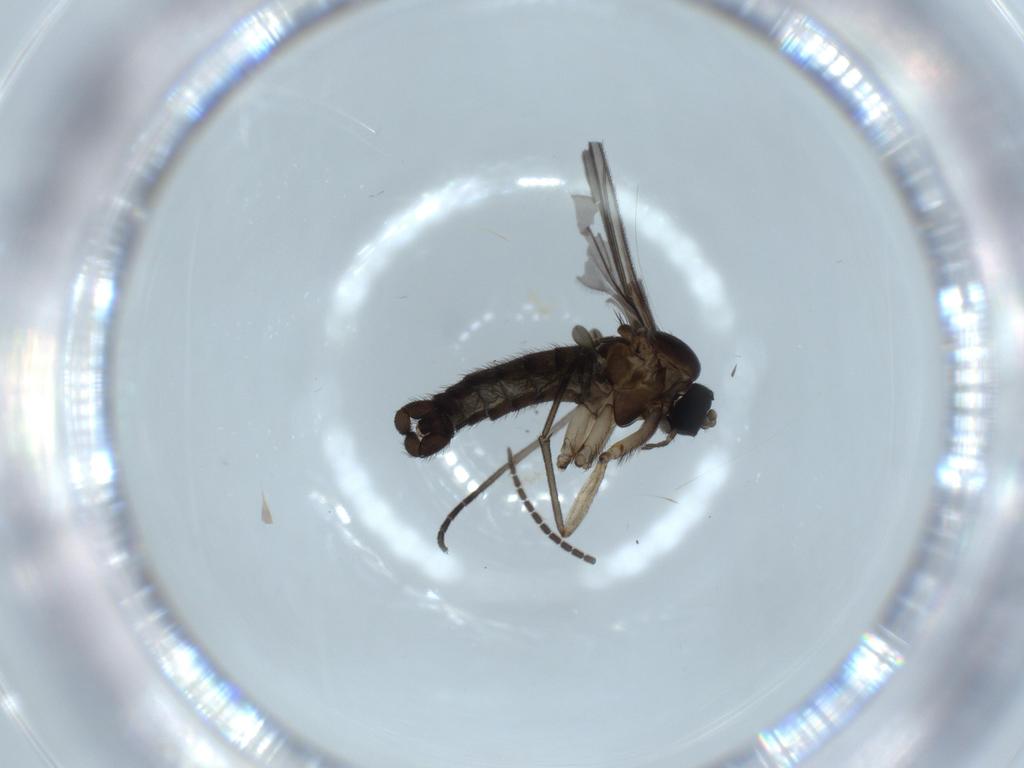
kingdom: Animalia
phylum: Arthropoda
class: Insecta
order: Diptera
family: Sciaridae
